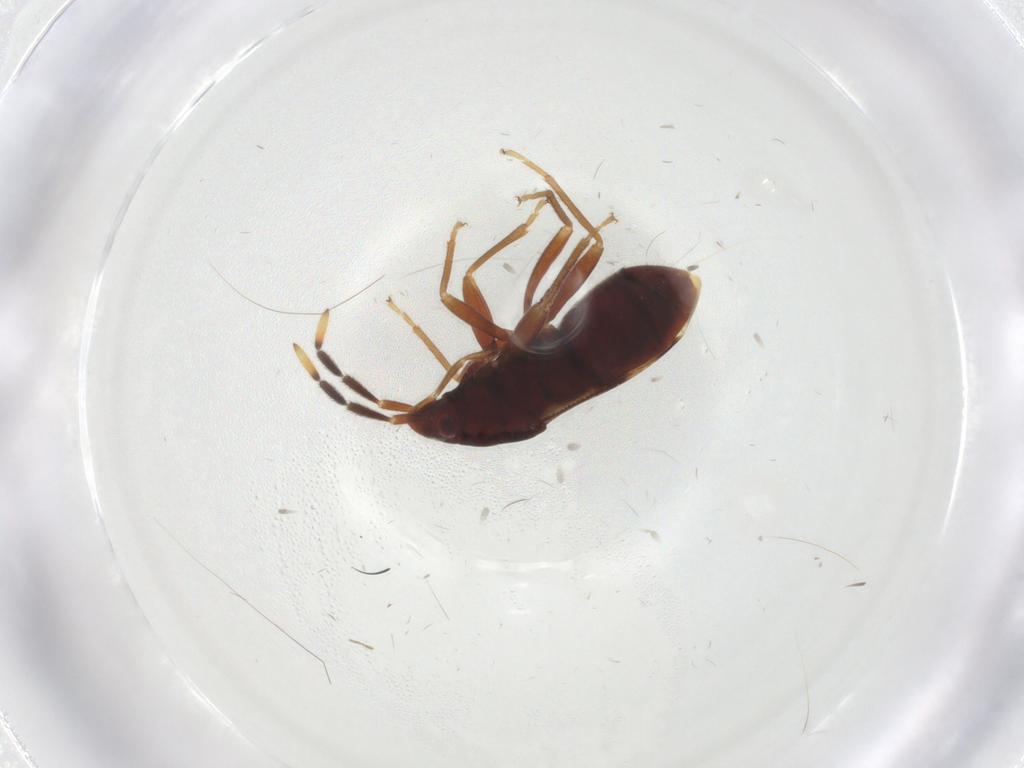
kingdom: Animalia
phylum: Arthropoda
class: Insecta
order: Hemiptera
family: Rhyparochromidae
